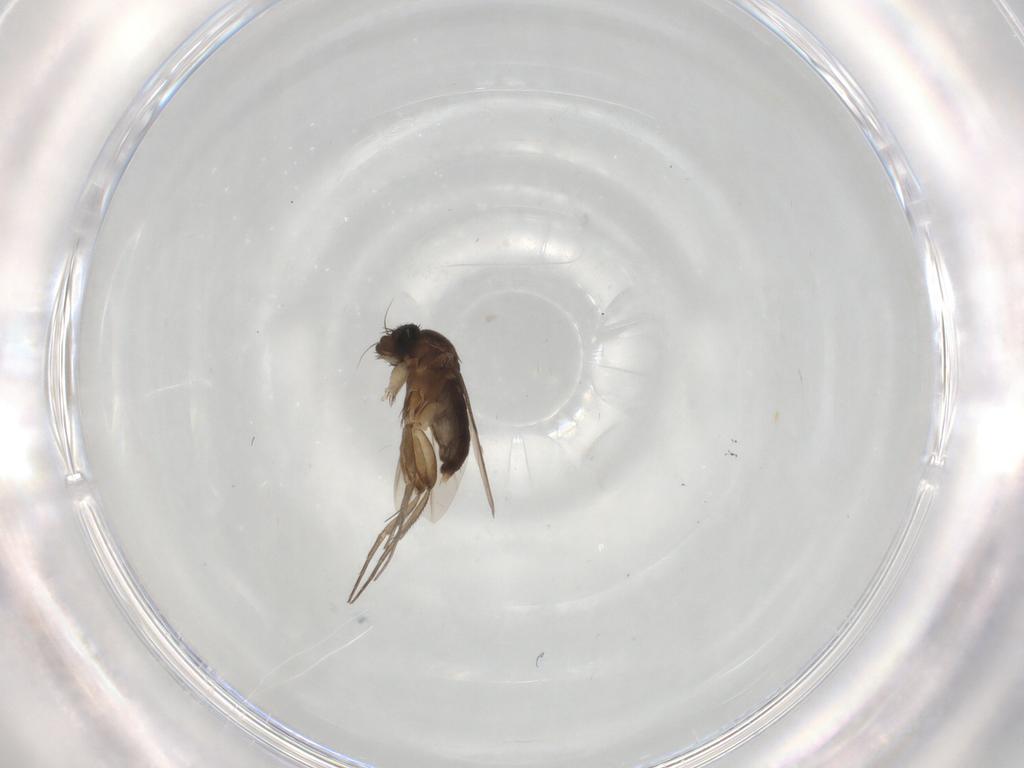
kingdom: Animalia
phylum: Arthropoda
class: Insecta
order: Diptera
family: Phoridae
